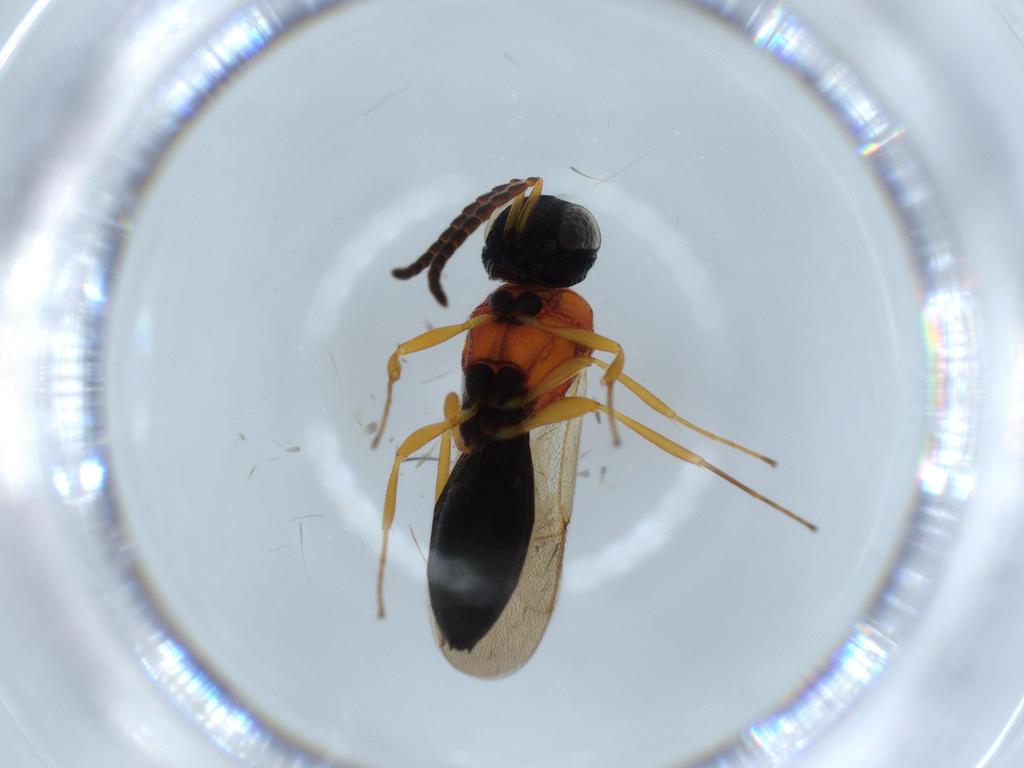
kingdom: Animalia
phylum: Arthropoda
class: Insecta
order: Hymenoptera
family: Scelionidae
